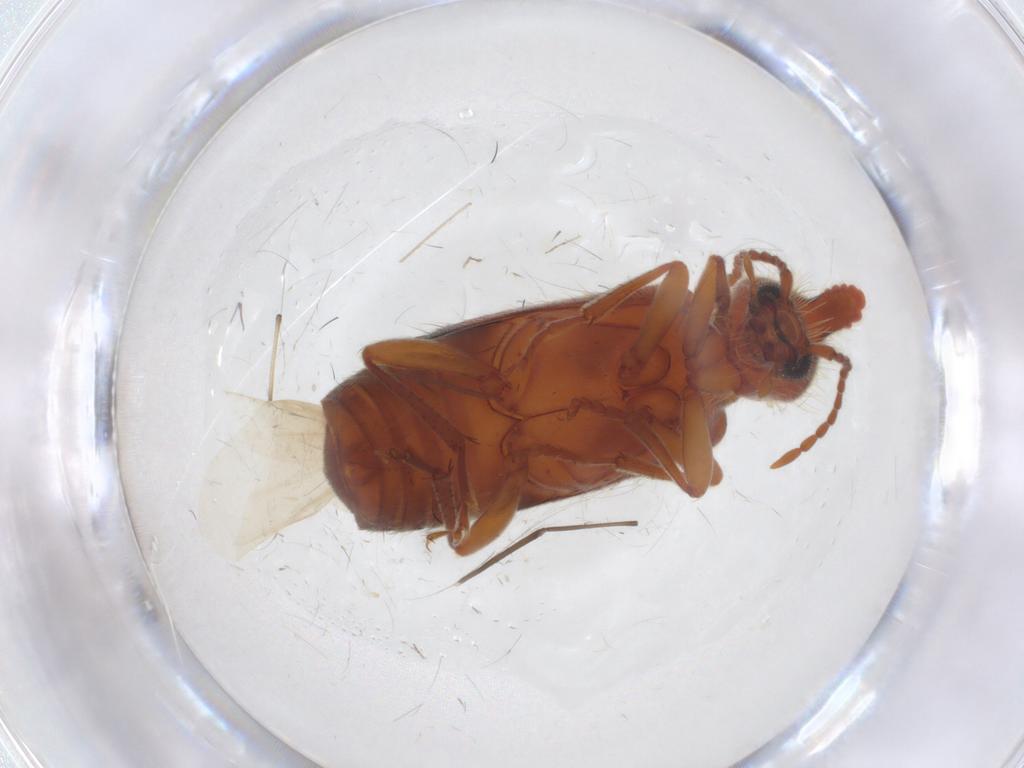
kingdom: Animalia
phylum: Arthropoda
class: Insecta
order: Coleoptera
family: Anthicidae
